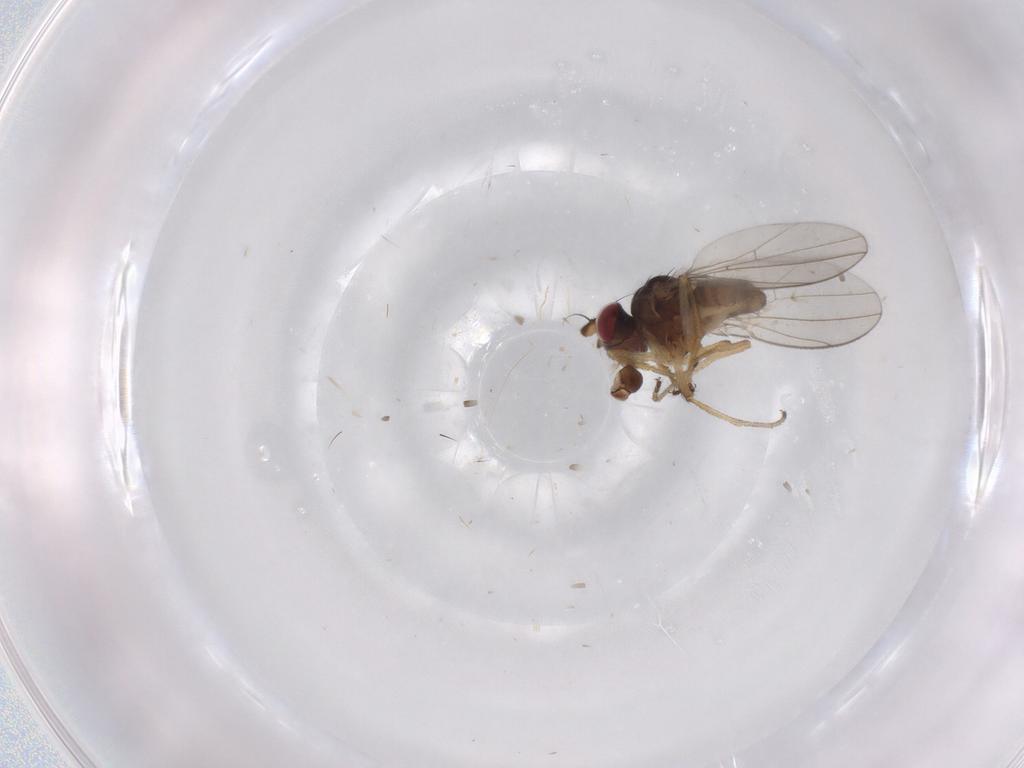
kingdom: Animalia
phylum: Arthropoda
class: Insecta
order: Diptera
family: Ephydridae
